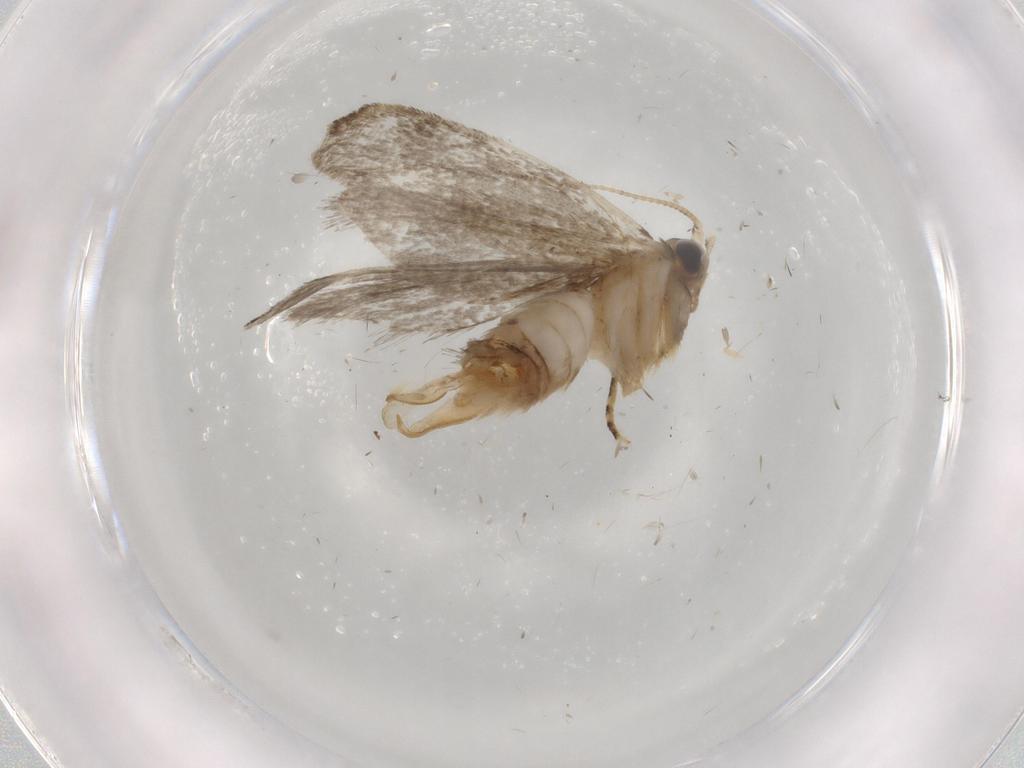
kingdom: Animalia
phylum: Arthropoda
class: Insecta
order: Lepidoptera
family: Tineidae
